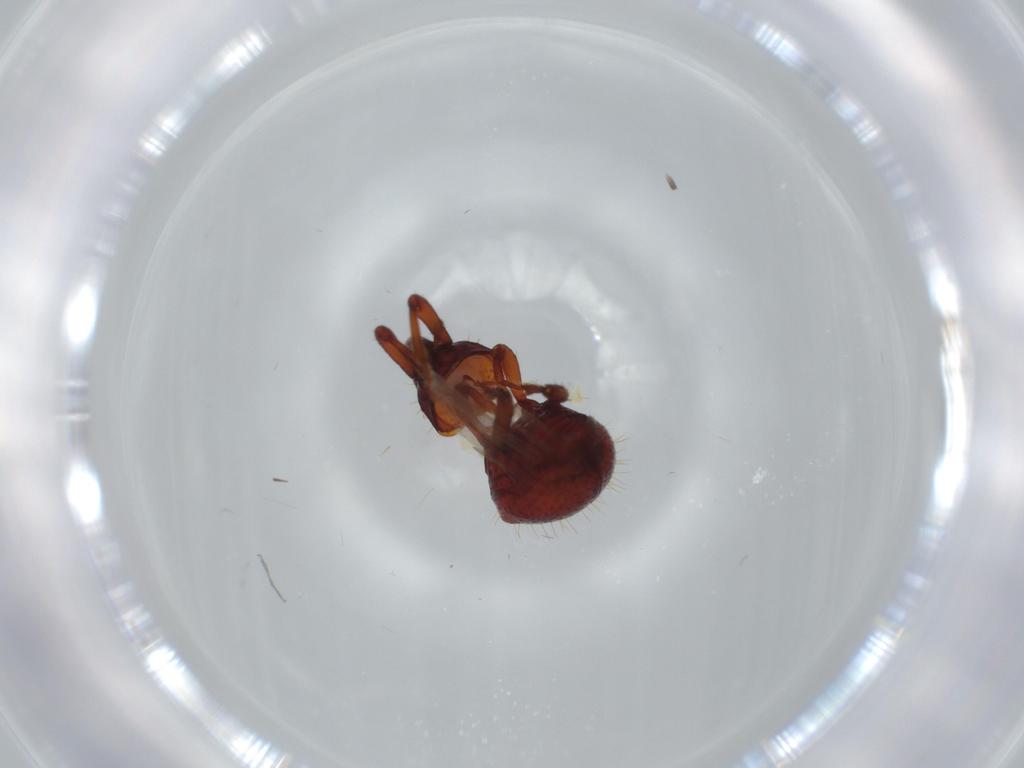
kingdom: Animalia
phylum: Arthropoda
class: Insecta
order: Coleoptera
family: Curculionidae
